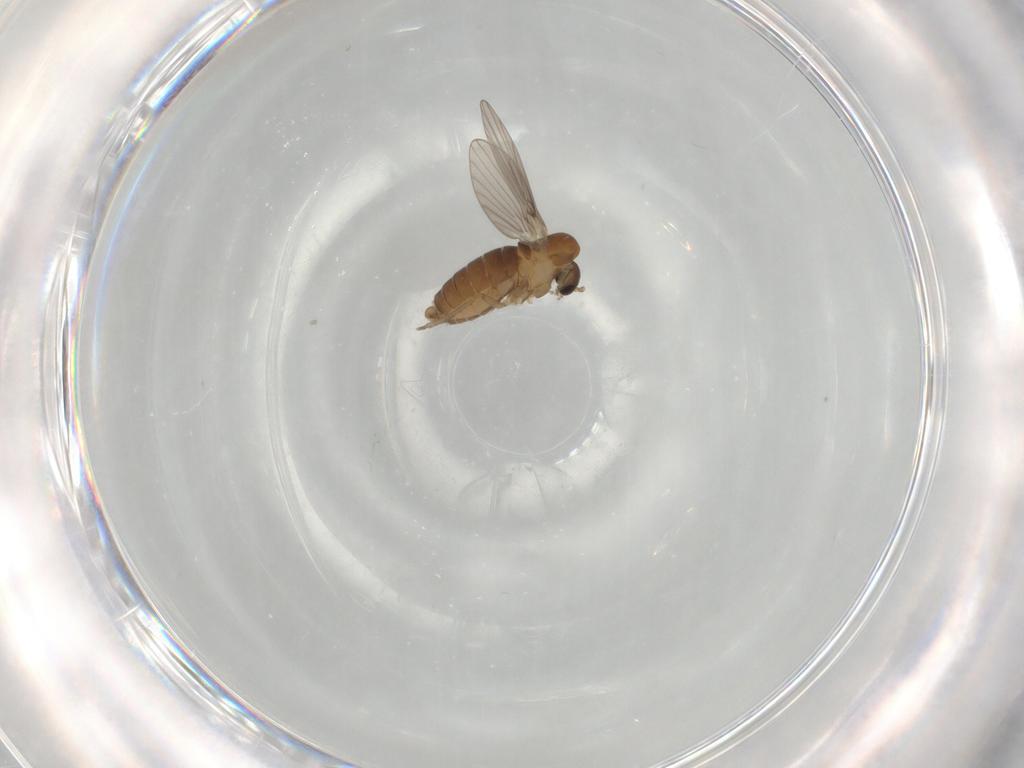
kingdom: Animalia
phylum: Arthropoda
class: Insecta
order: Diptera
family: Psychodidae
